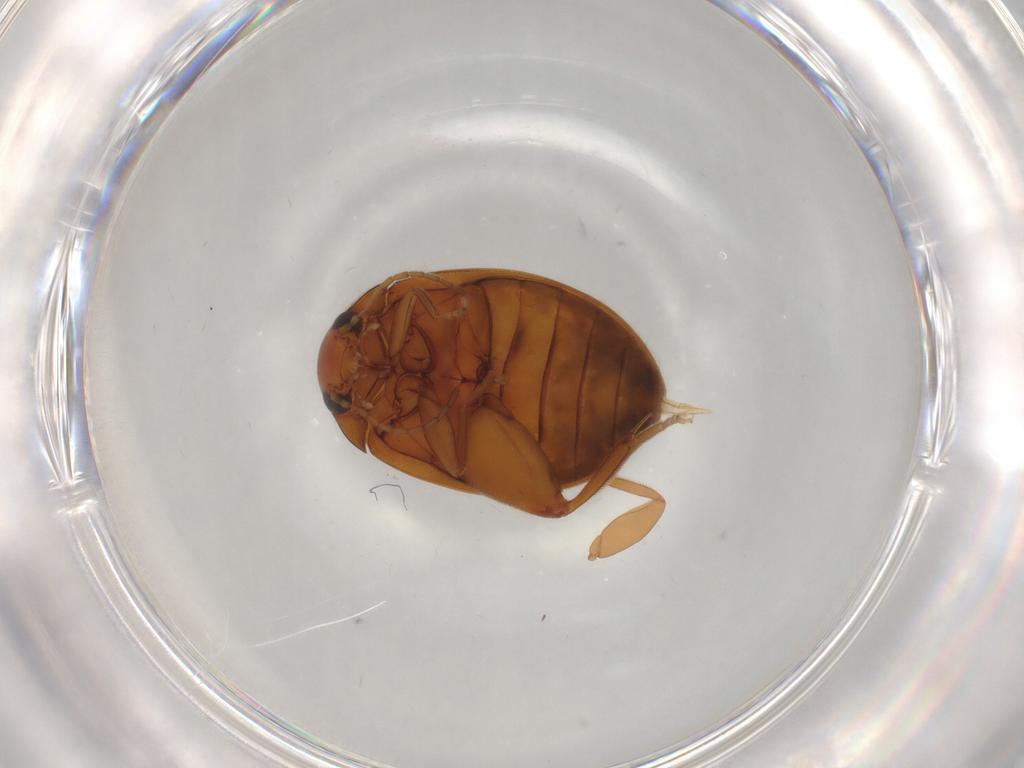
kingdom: Animalia
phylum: Arthropoda
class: Insecta
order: Coleoptera
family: Scirtidae
